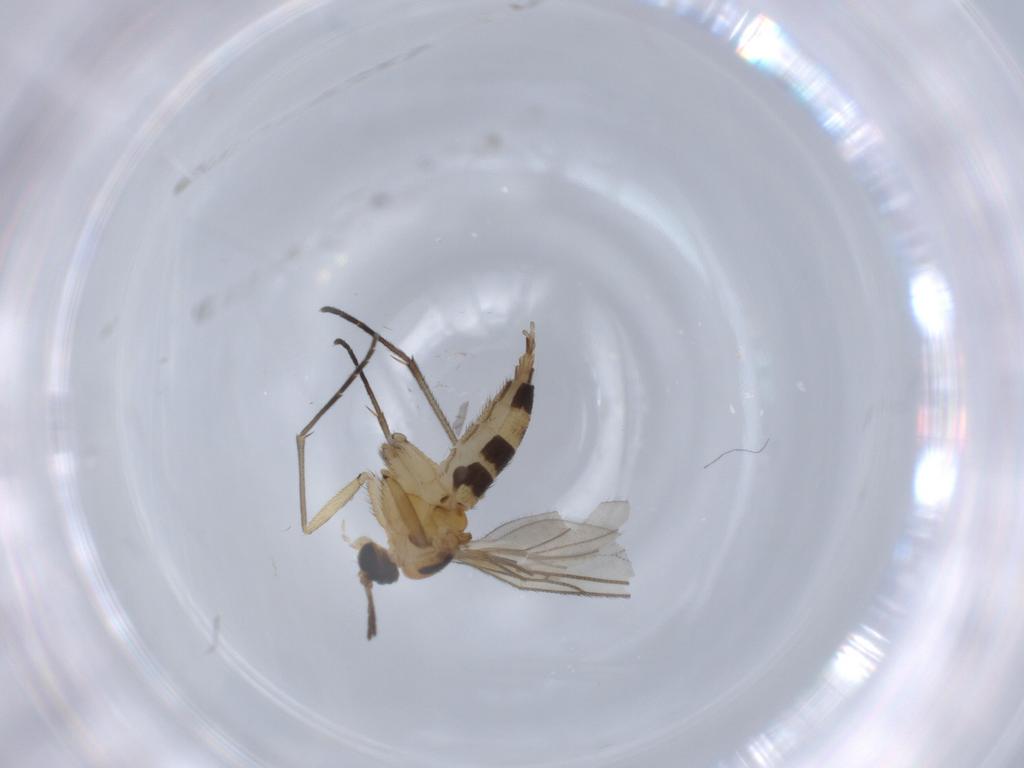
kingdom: Animalia
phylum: Arthropoda
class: Insecta
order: Diptera
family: Sciaridae
